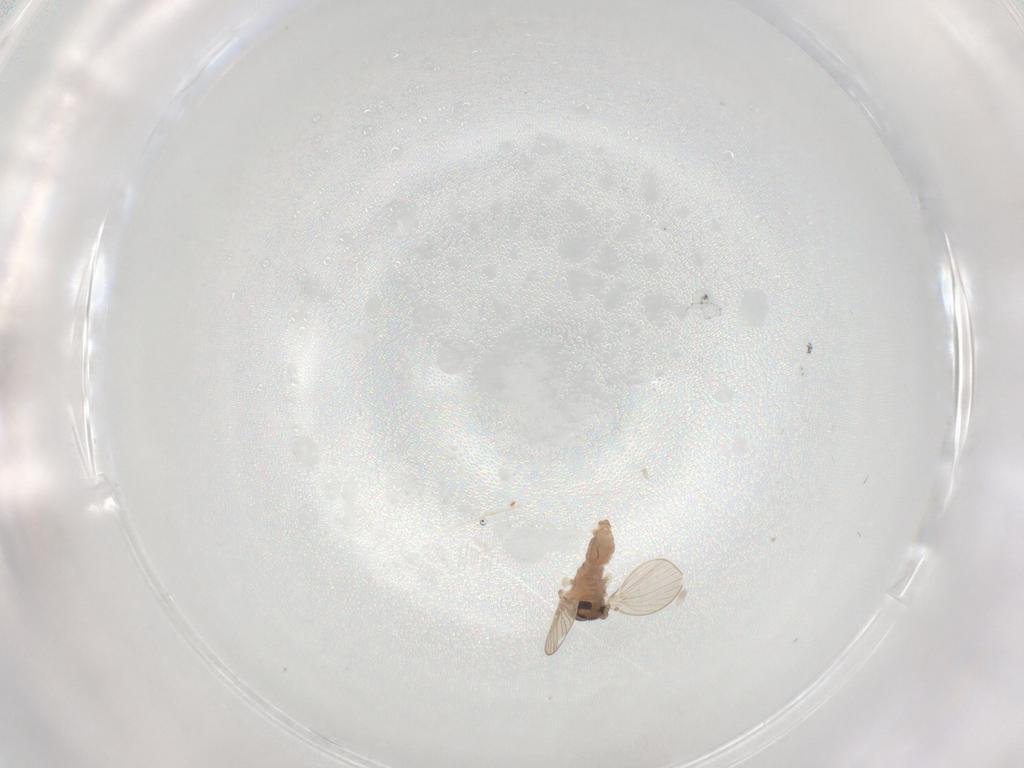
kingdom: Animalia
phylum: Arthropoda
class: Insecta
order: Diptera
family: Psychodidae
